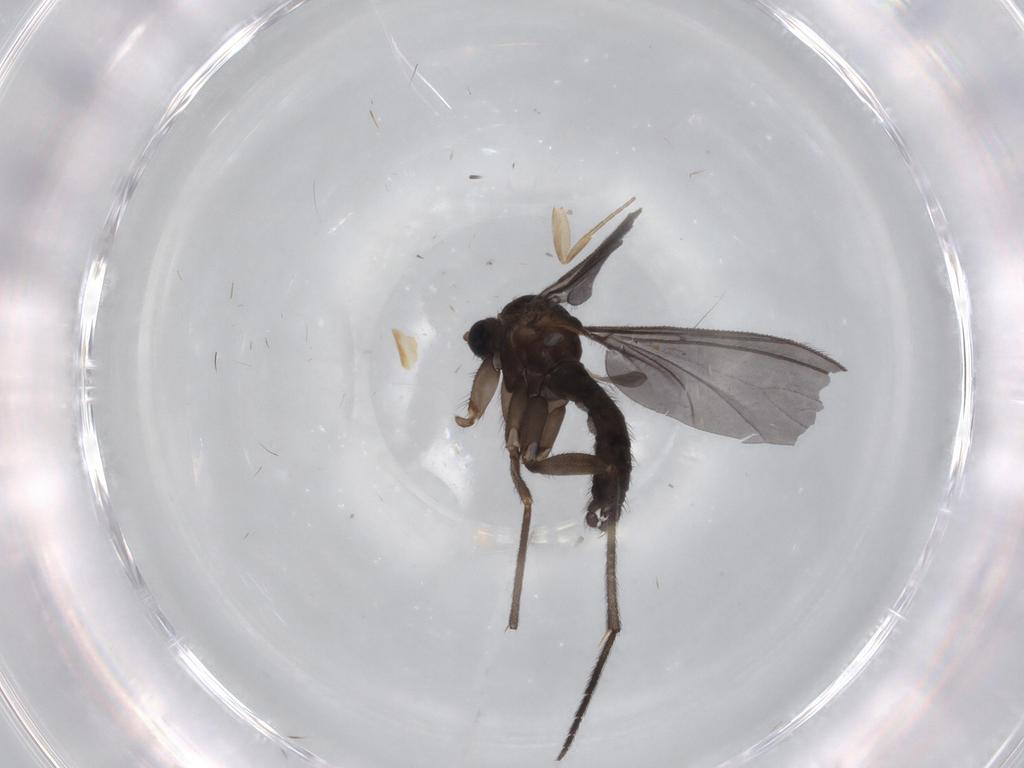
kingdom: Animalia
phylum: Arthropoda
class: Insecta
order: Diptera
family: Sciaridae
